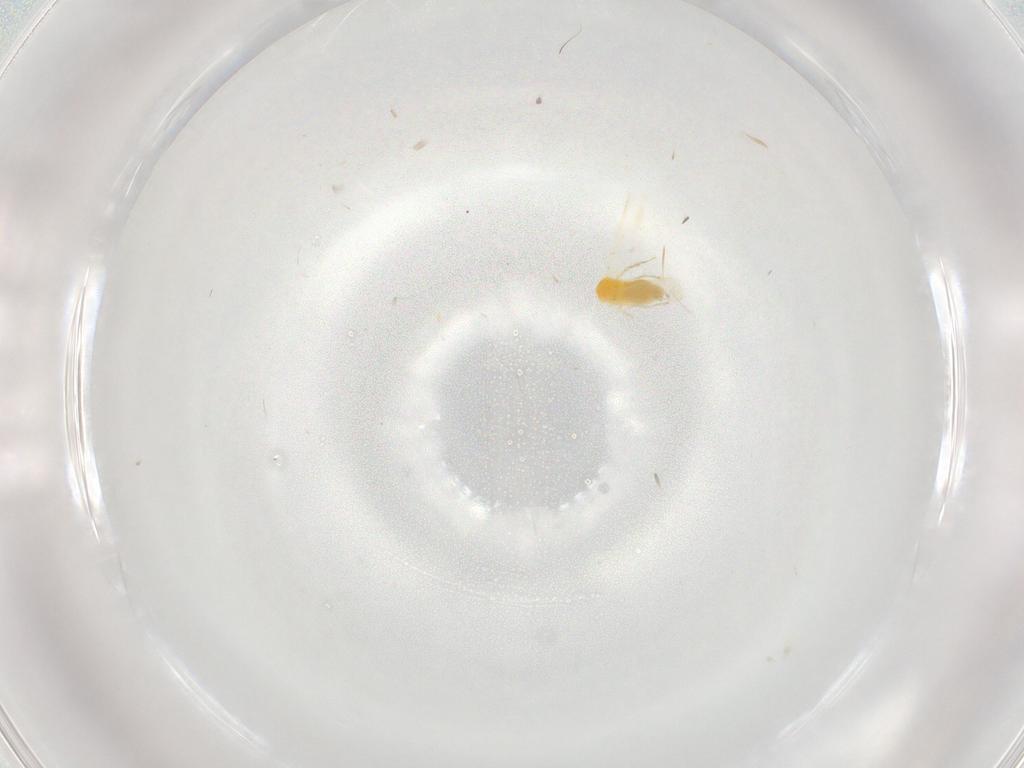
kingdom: Animalia
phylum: Arthropoda
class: Insecta
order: Hemiptera
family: Aleyrodidae
